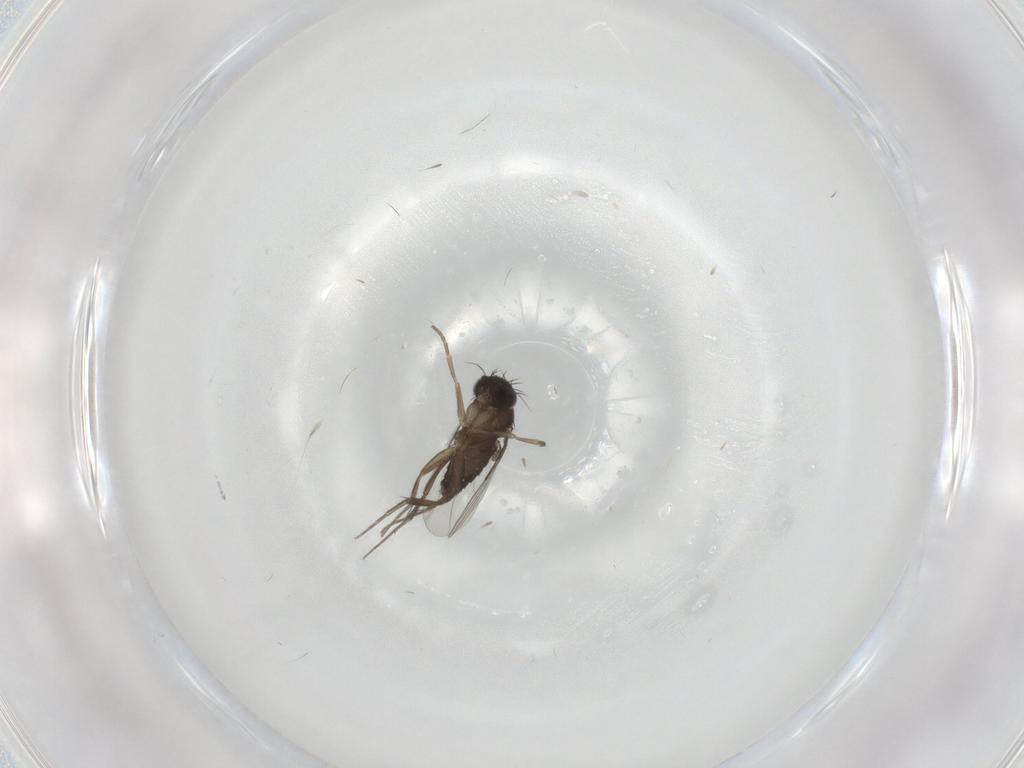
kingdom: Animalia
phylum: Arthropoda
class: Insecta
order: Diptera
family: Phoridae
